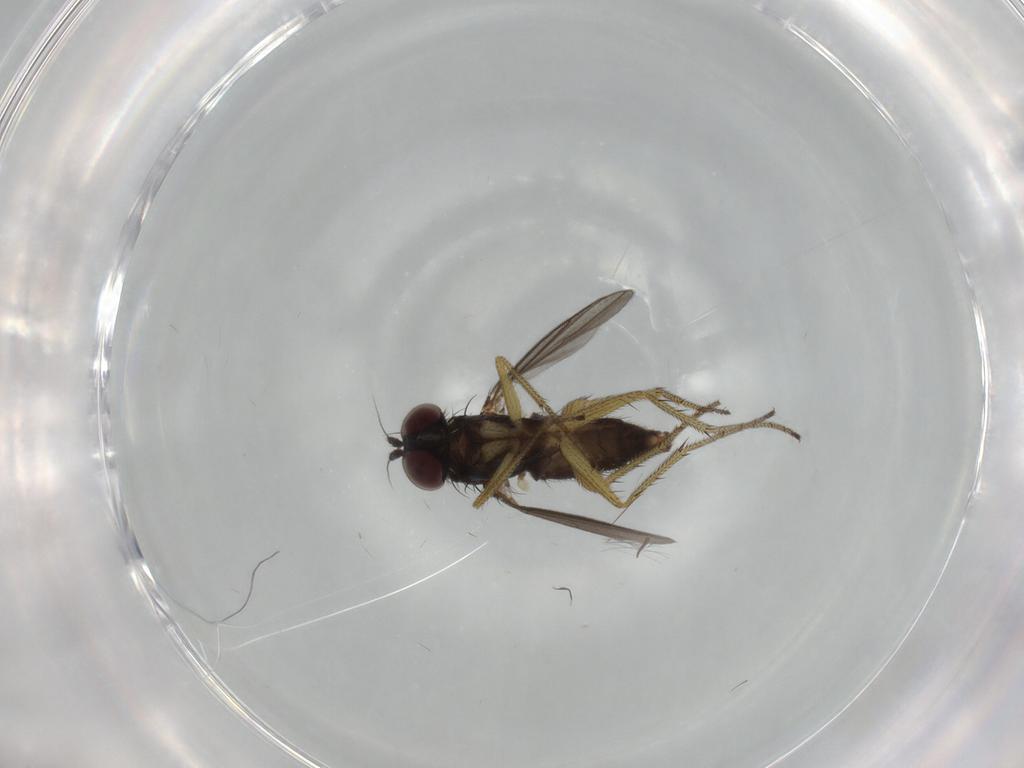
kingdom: Animalia
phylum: Arthropoda
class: Insecta
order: Diptera
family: Dolichopodidae
